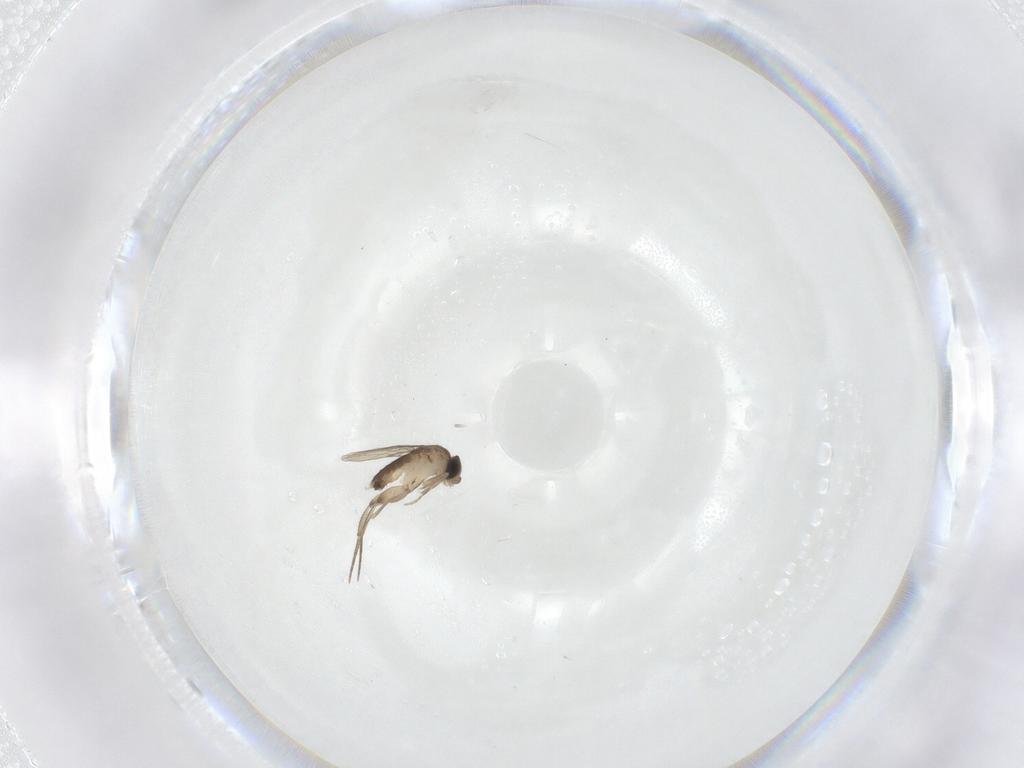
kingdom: Animalia
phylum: Arthropoda
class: Insecta
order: Diptera
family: Phoridae
